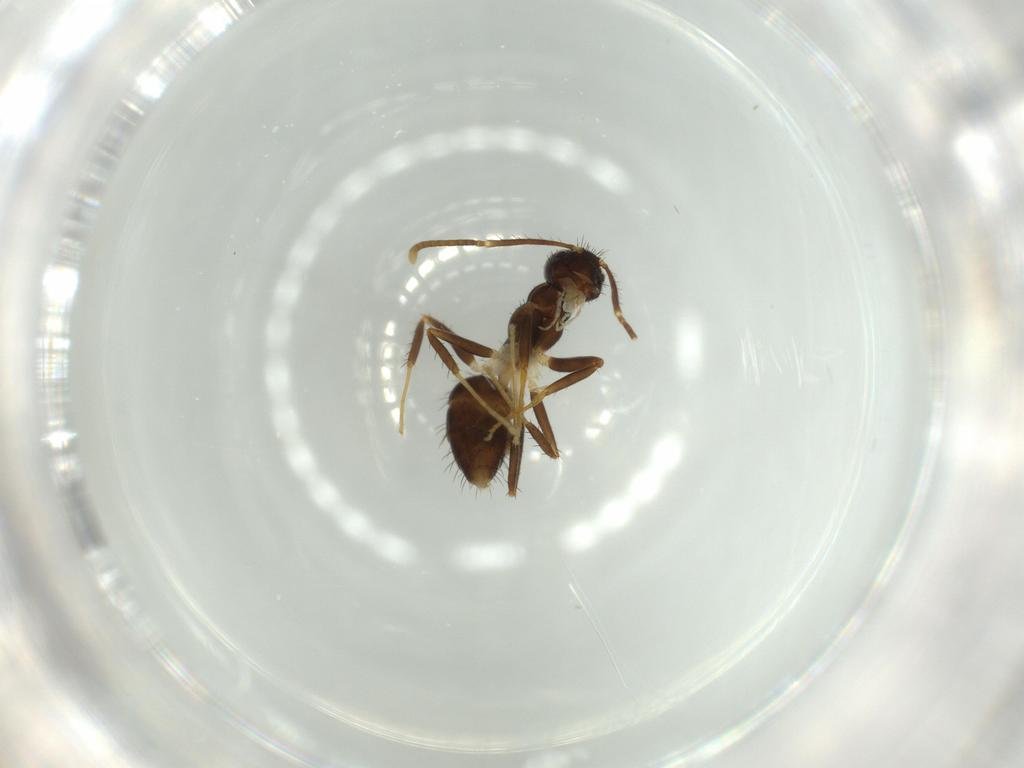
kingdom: Animalia
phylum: Arthropoda
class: Insecta
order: Hymenoptera
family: Formicidae
